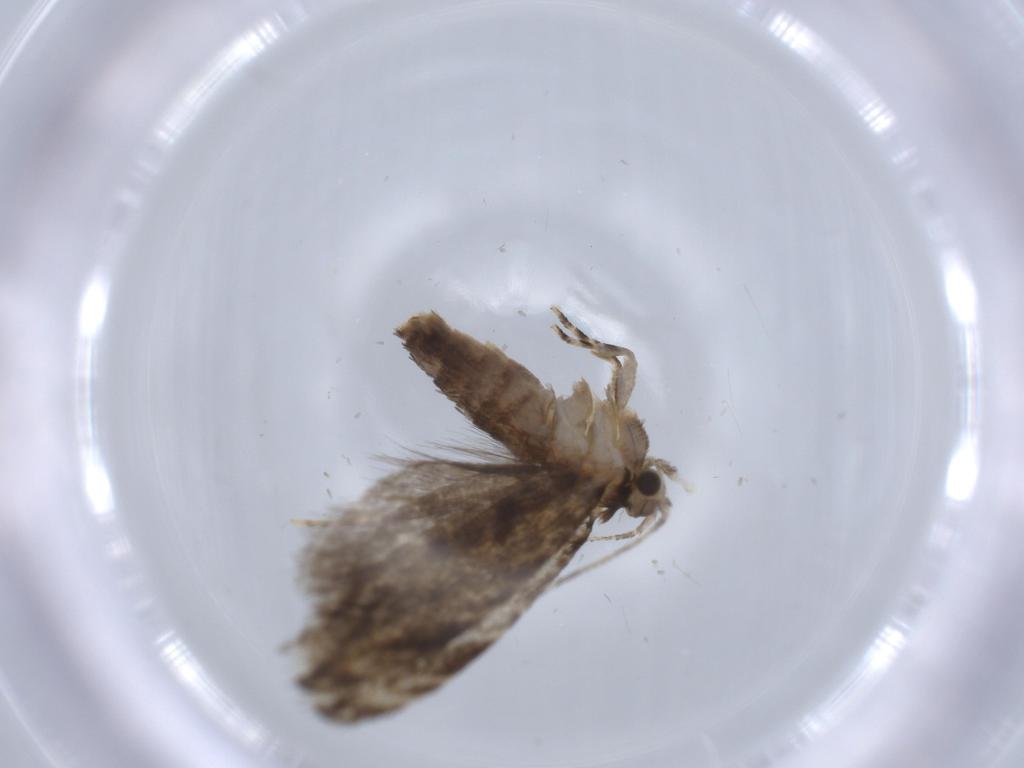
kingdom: Animalia
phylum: Arthropoda
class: Insecta
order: Lepidoptera
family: Tineidae
